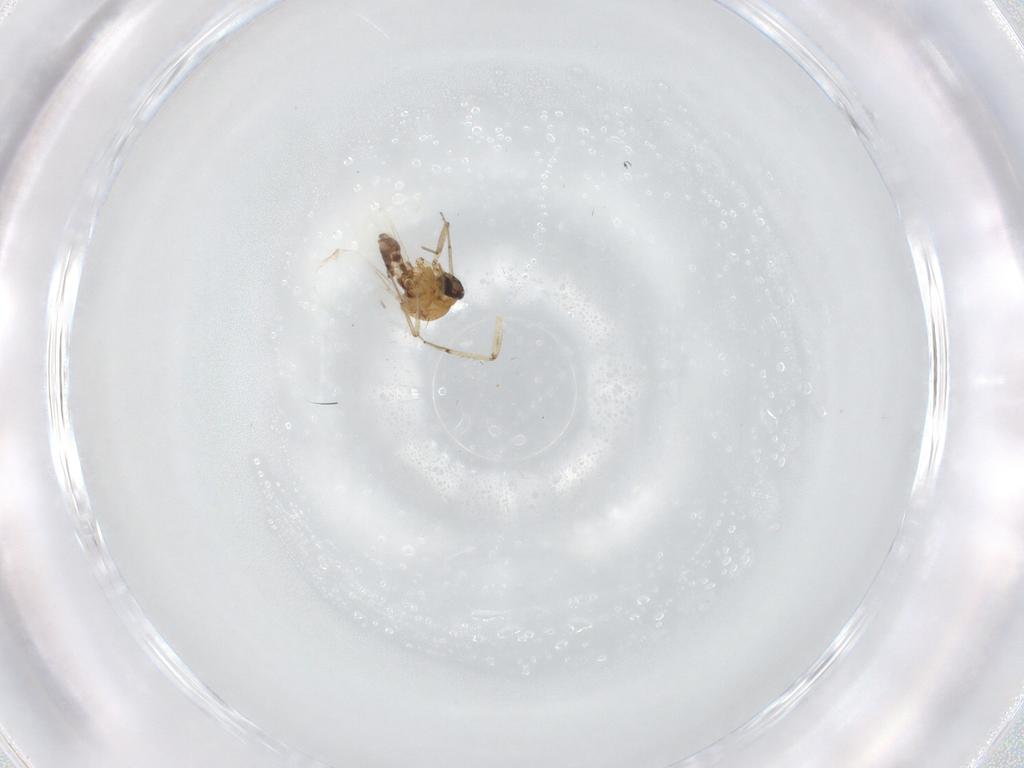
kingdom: Animalia
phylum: Arthropoda
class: Insecta
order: Diptera
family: Ceratopogonidae
